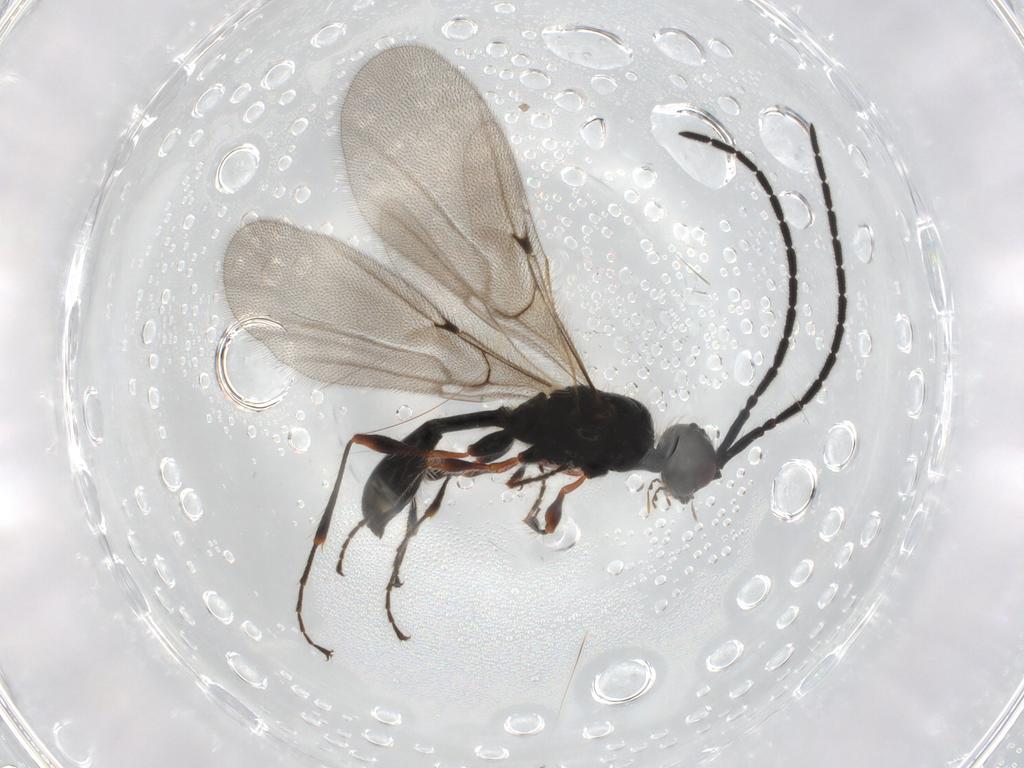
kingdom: Animalia
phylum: Arthropoda
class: Insecta
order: Hymenoptera
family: Diapriidae
